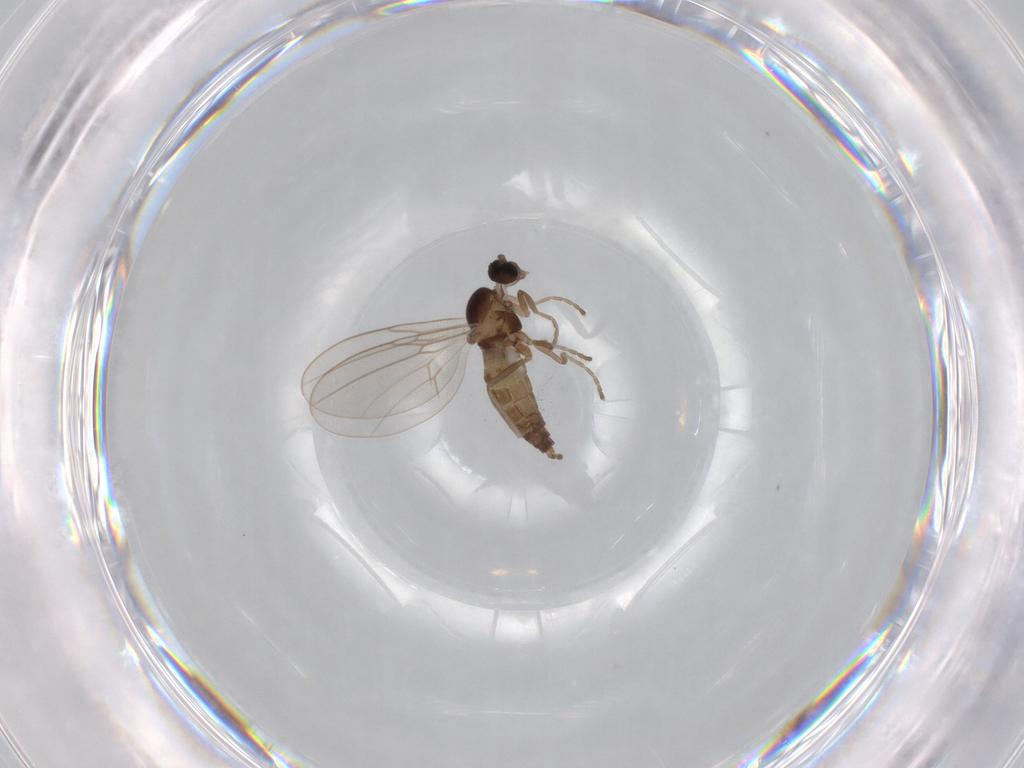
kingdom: Animalia
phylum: Arthropoda
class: Insecta
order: Diptera
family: Cecidomyiidae
